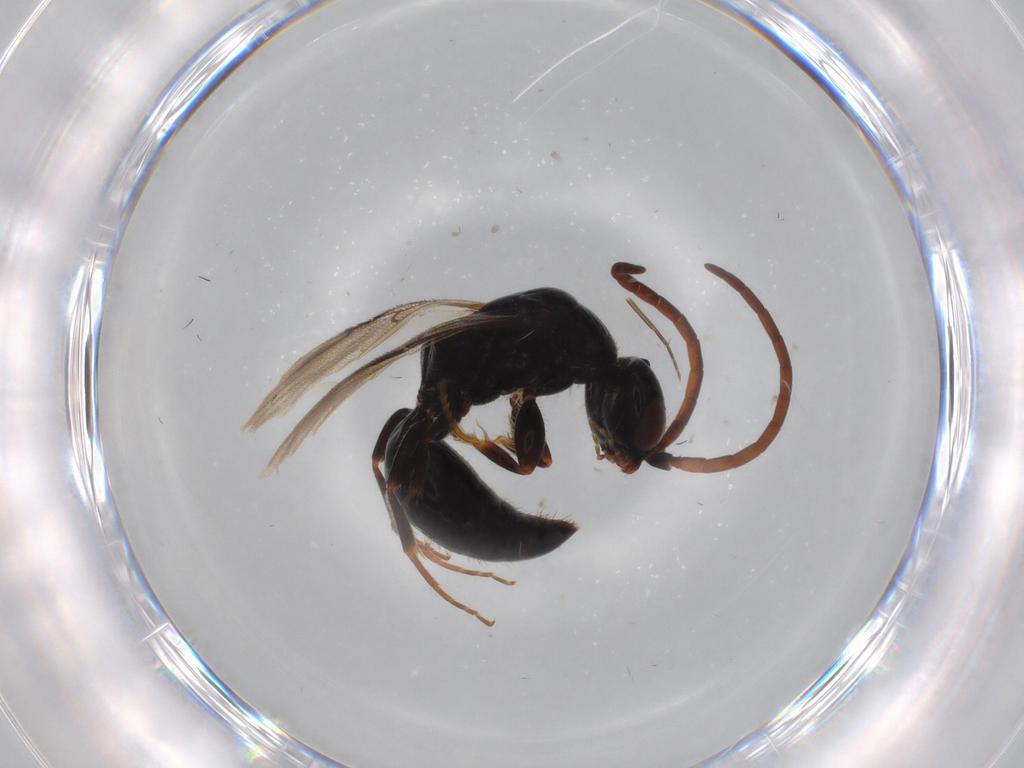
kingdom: Animalia
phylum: Arthropoda
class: Insecta
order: Hymenoptera
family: Bethylidae
